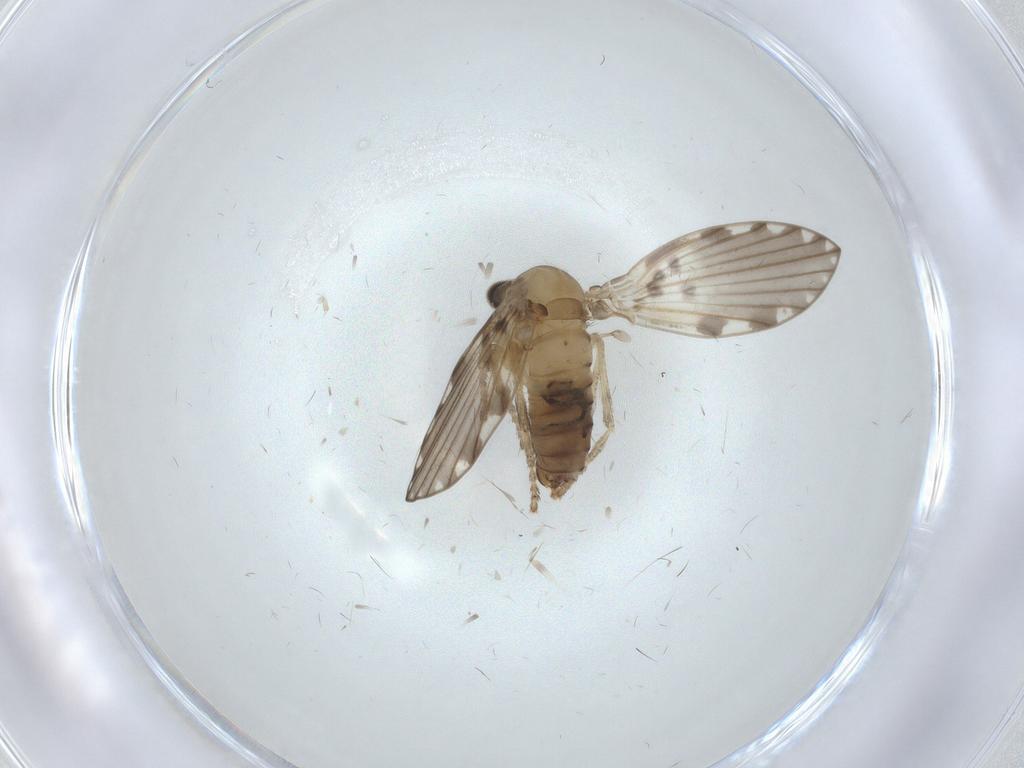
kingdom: Animalia
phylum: Arthropoda
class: Insecta
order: Diptera
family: Psychodidae
